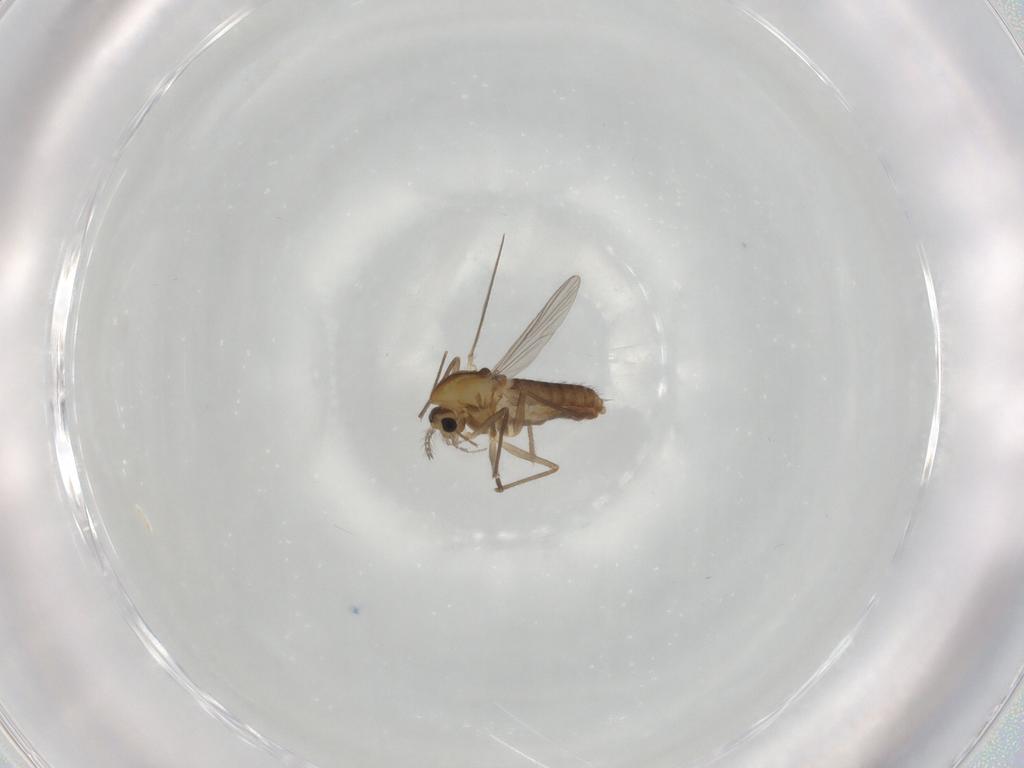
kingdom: Animalia
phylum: Arthropoda
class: Insecta
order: Diptera
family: Chironomidae
